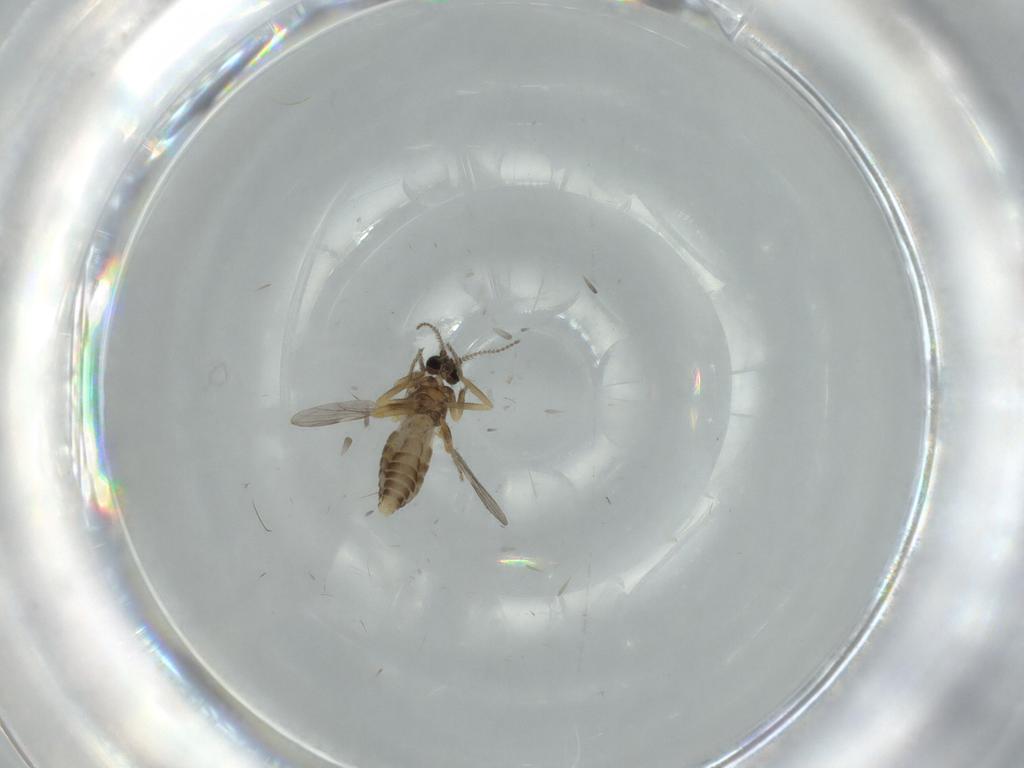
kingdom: Animalia
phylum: Arthropoda
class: Insecta
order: Diptera
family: Ceratopogonidae
